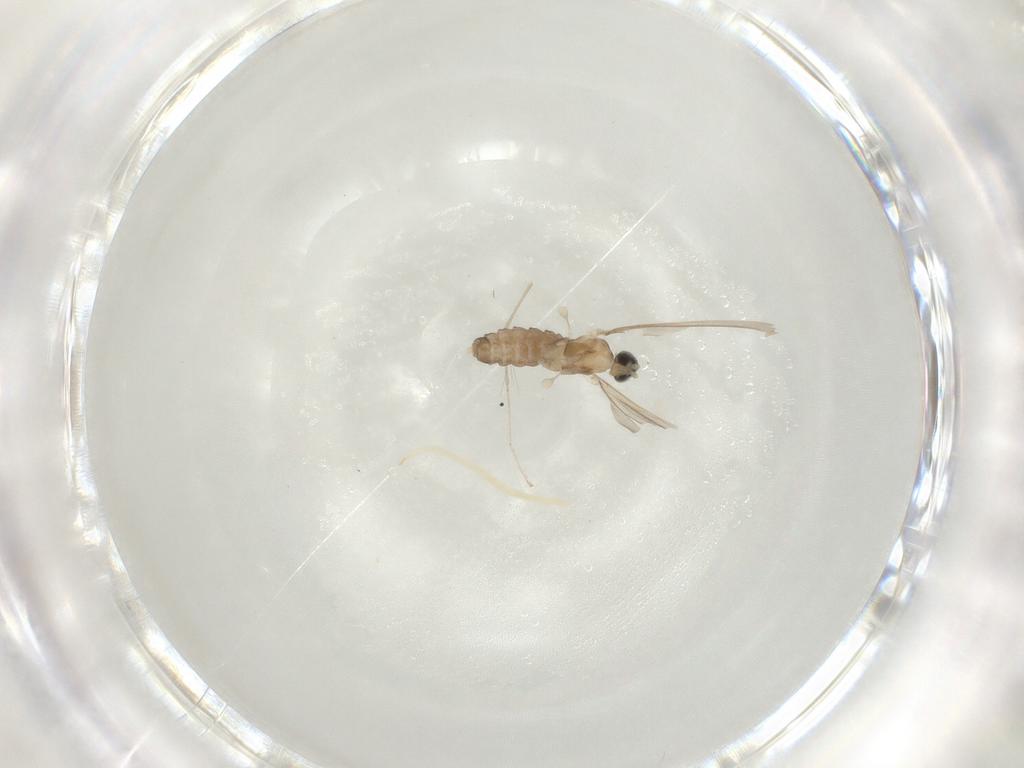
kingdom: Animalia
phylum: Arthropoda
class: Insecta
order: Diptera
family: Cecidomyiidae
